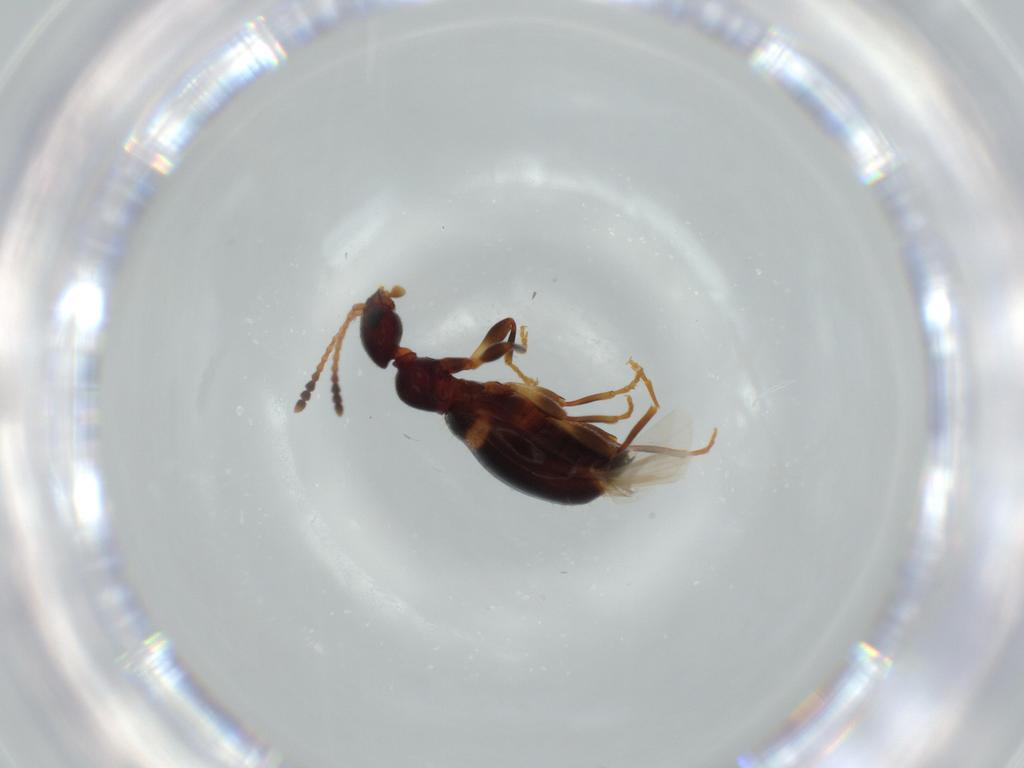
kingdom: Animalia
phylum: Arthropoda
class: Insecta
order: Coleoptera
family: Anthicidae
